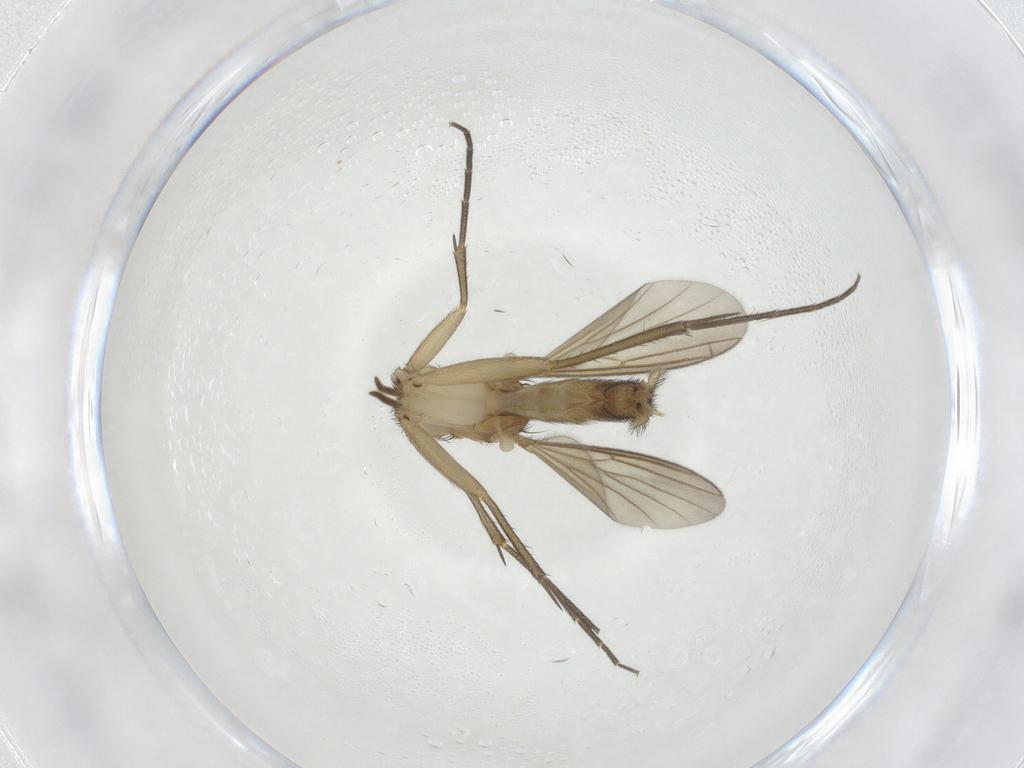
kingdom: Animalia
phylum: Arthropoda
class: Insecta
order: Diptera
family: Mycetophilidae
